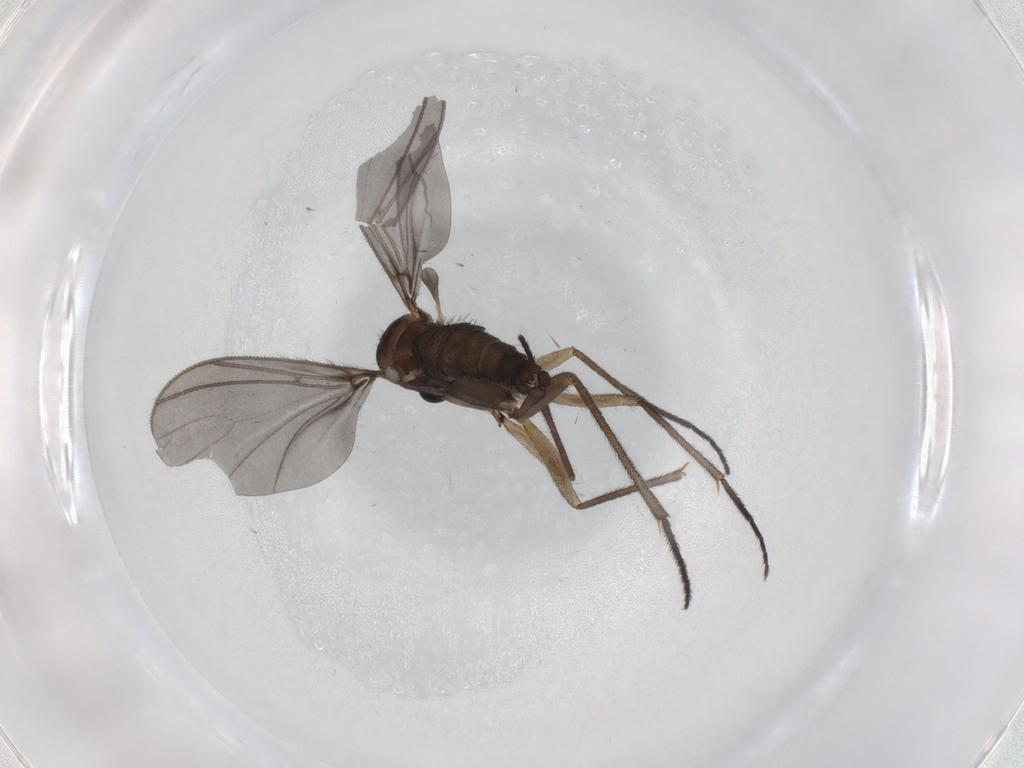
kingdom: Animalia
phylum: Arthropoda
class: Insecta
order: Diptera
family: Sciaridae
